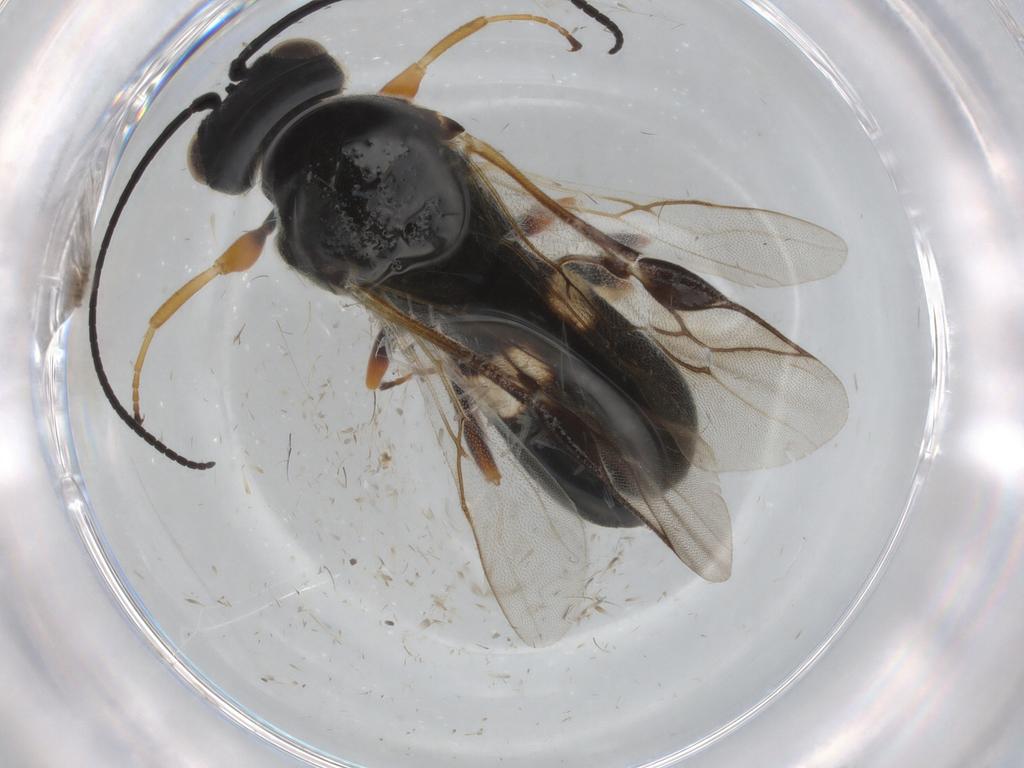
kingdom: Animalia
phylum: Arthropoda
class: Insecta
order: Hymenoptera
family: Braconidae
